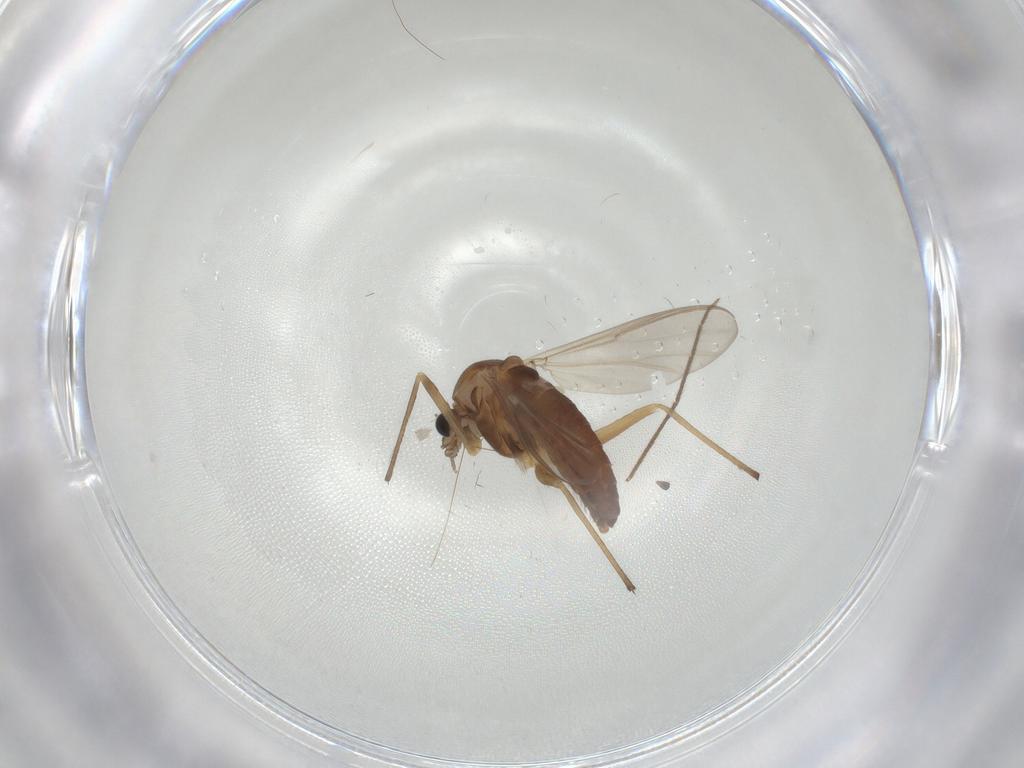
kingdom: Animalia
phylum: Arthropoda
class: Insecta
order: Diptera
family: Chironomidae
